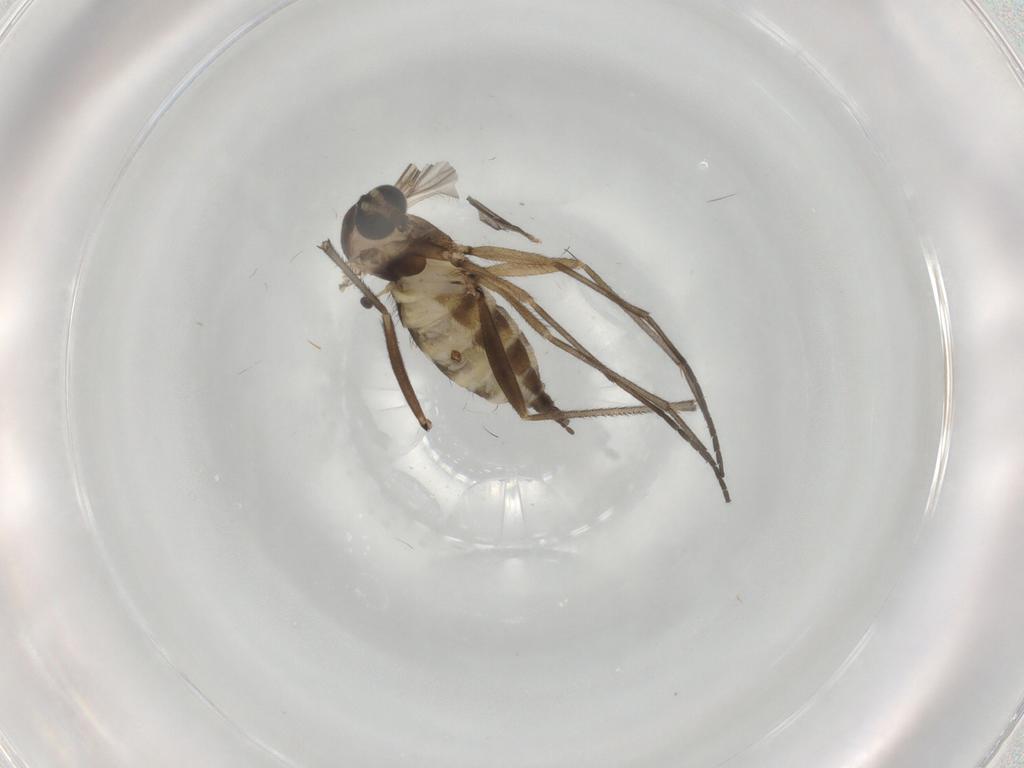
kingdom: Animalia
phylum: Arthropoda
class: Insecta
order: Diptera
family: Sciaridae
